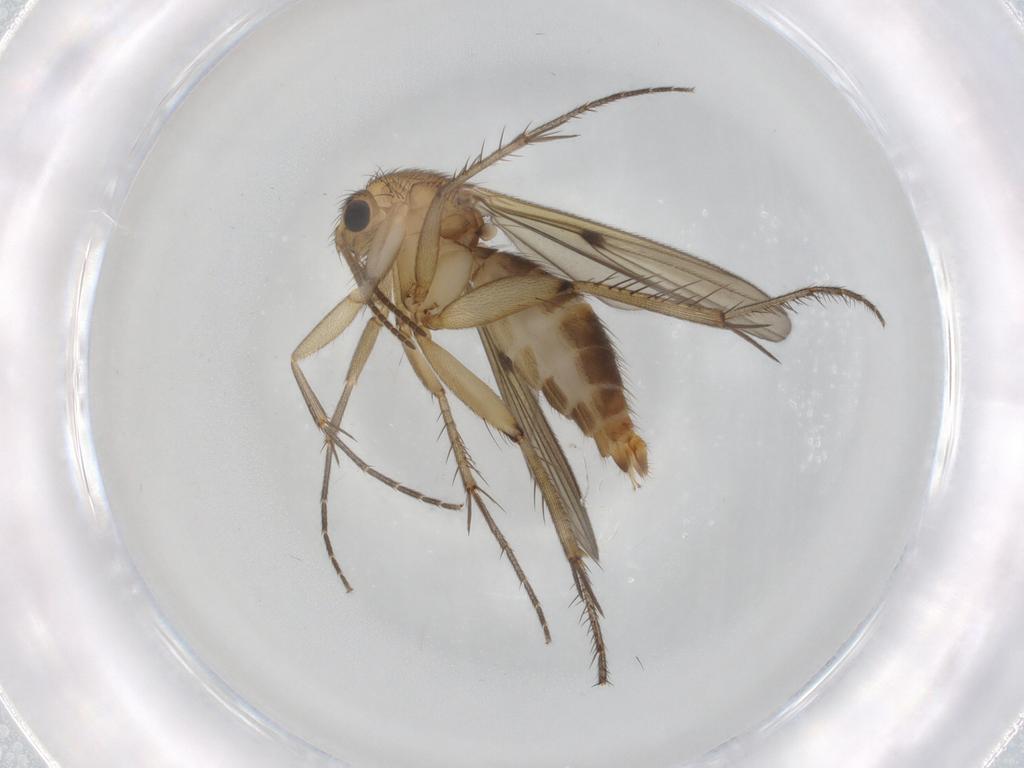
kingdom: Animalia
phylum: Arthropoda
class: Insecta
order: Diptera
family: Mycetophilidae
